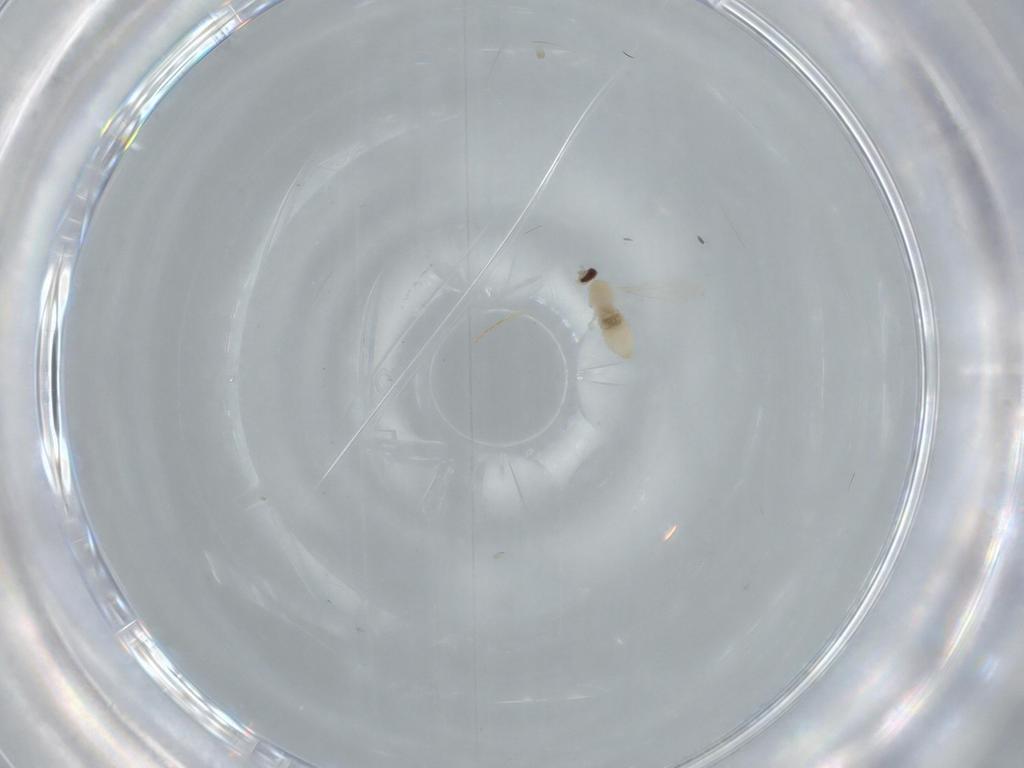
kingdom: Animalia
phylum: Arthropoda
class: Insecta
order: Diptera
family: Cecidomyiidae
